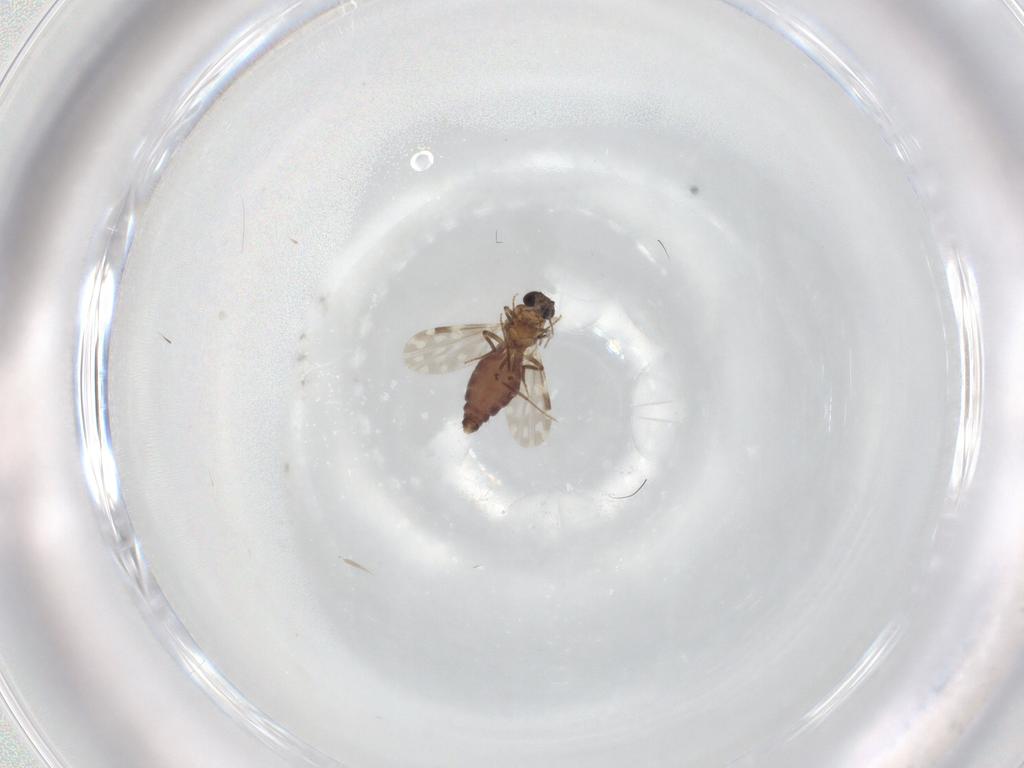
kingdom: Animalia
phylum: Arthropoda
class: Insecta
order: Diptera
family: Ceratopogonidae
